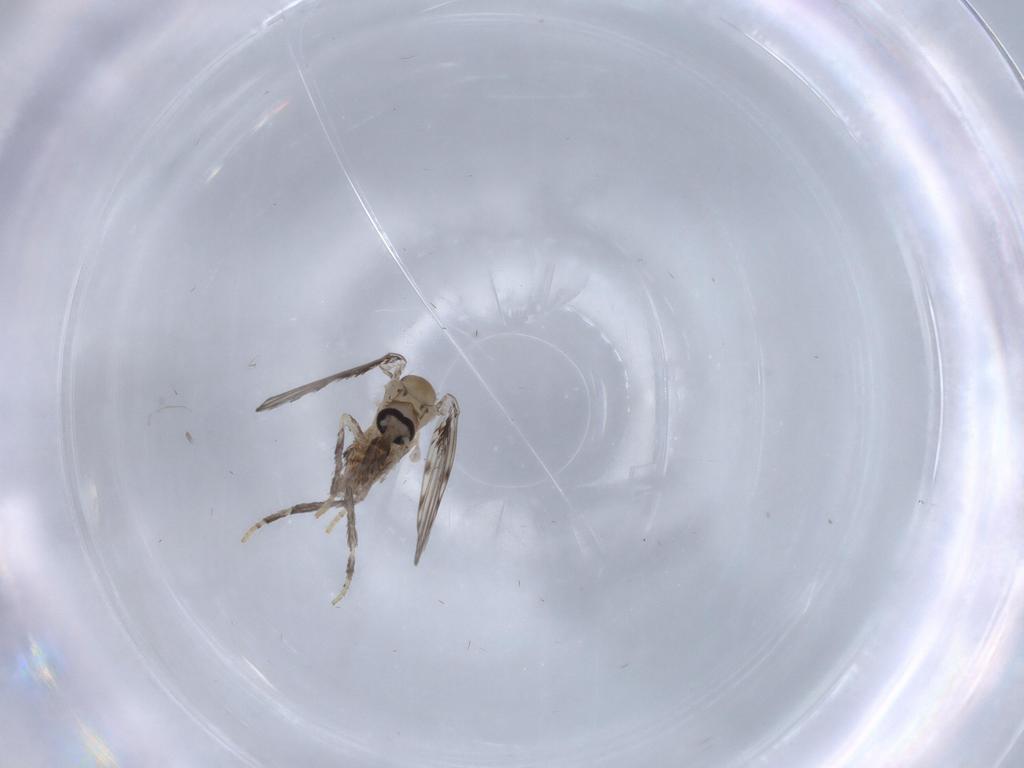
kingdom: Animalia
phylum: Arthropoda
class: Insecta
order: Diptera
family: Psychodidae
